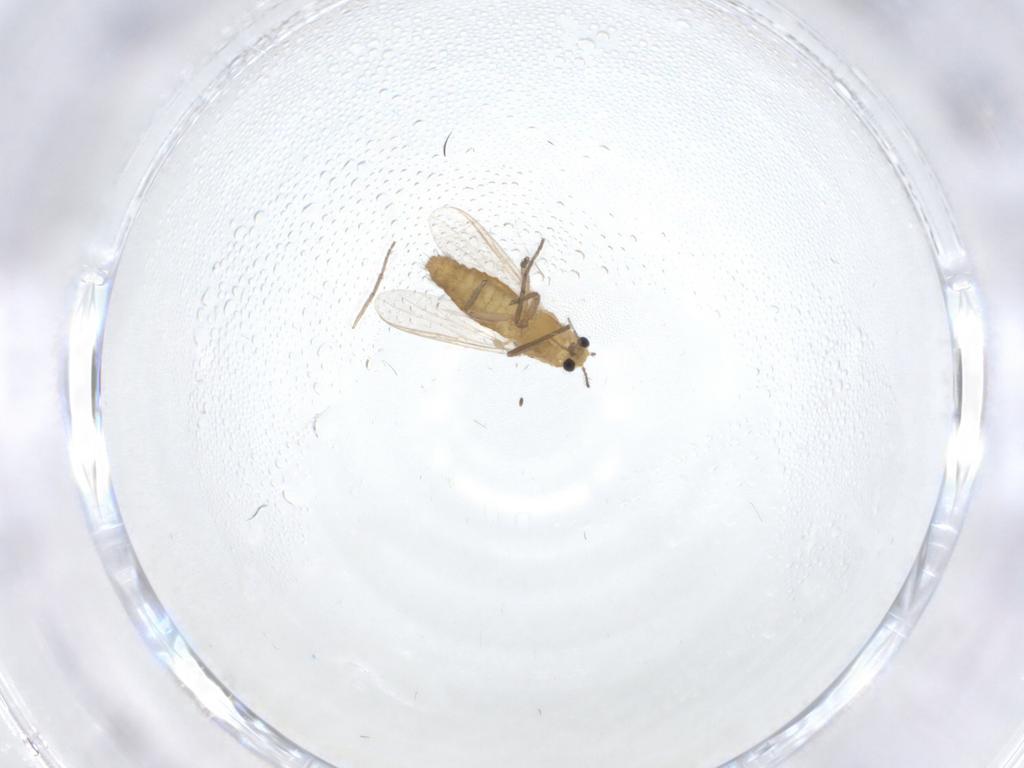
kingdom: Animalia
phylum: Arthropoda
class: Insecta
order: Diptera
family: Chironomidae
